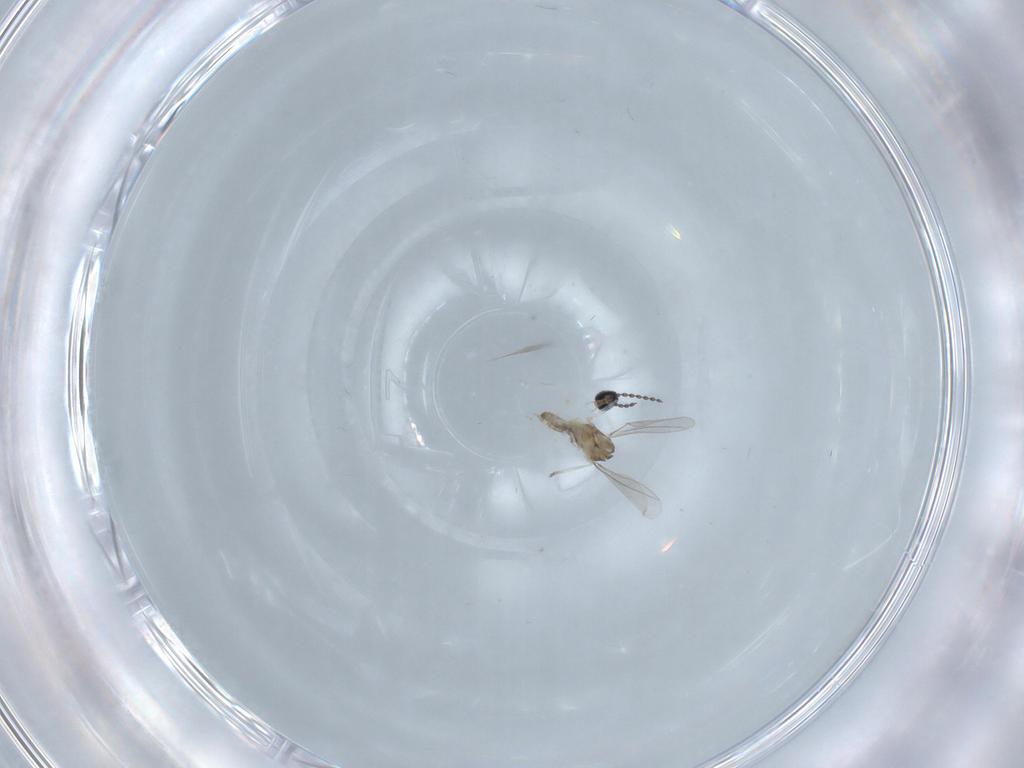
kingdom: Animalia
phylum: Arthropoda
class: Insecta
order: Diptera
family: Cecidomyiidae
